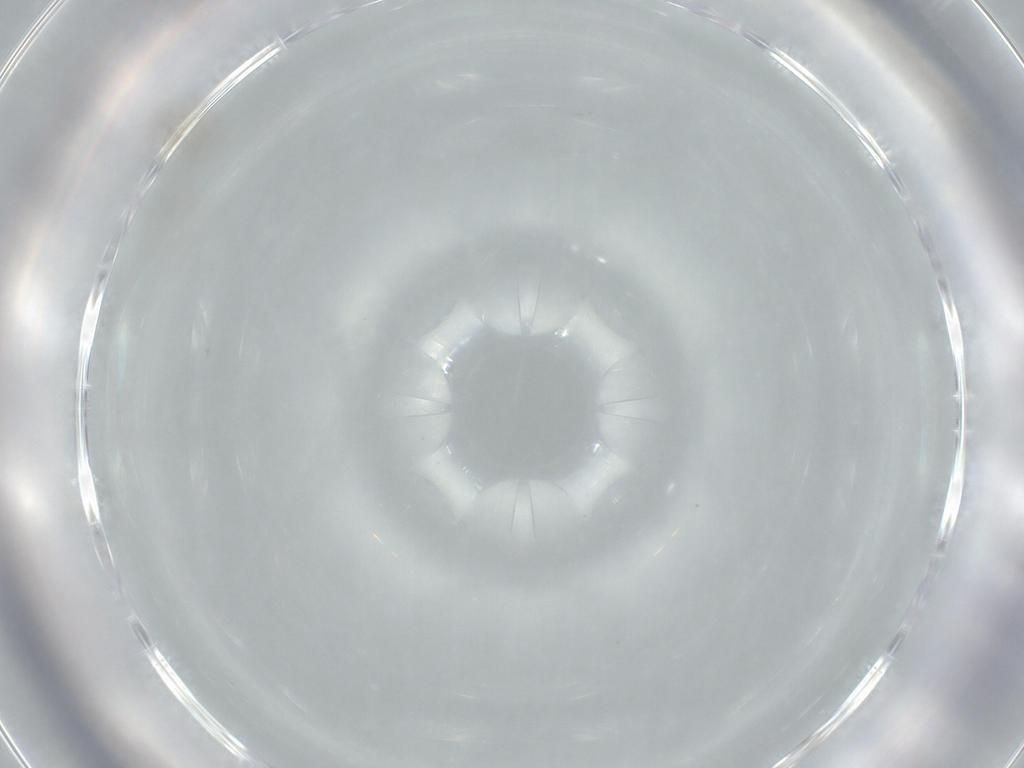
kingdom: Animalia
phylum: Arthropoda
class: Insecta
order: Diptera
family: Cecidomyiidae
